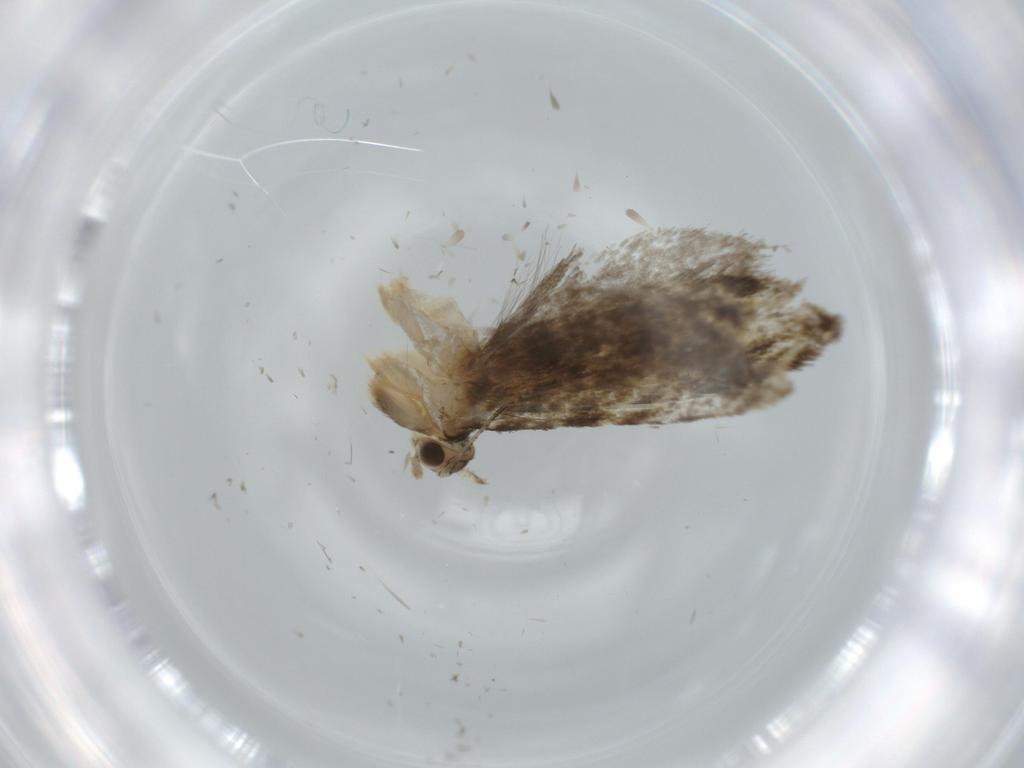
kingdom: Animalia
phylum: Arthropoda
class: Insecta
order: Lepidoptera
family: Tineidae
